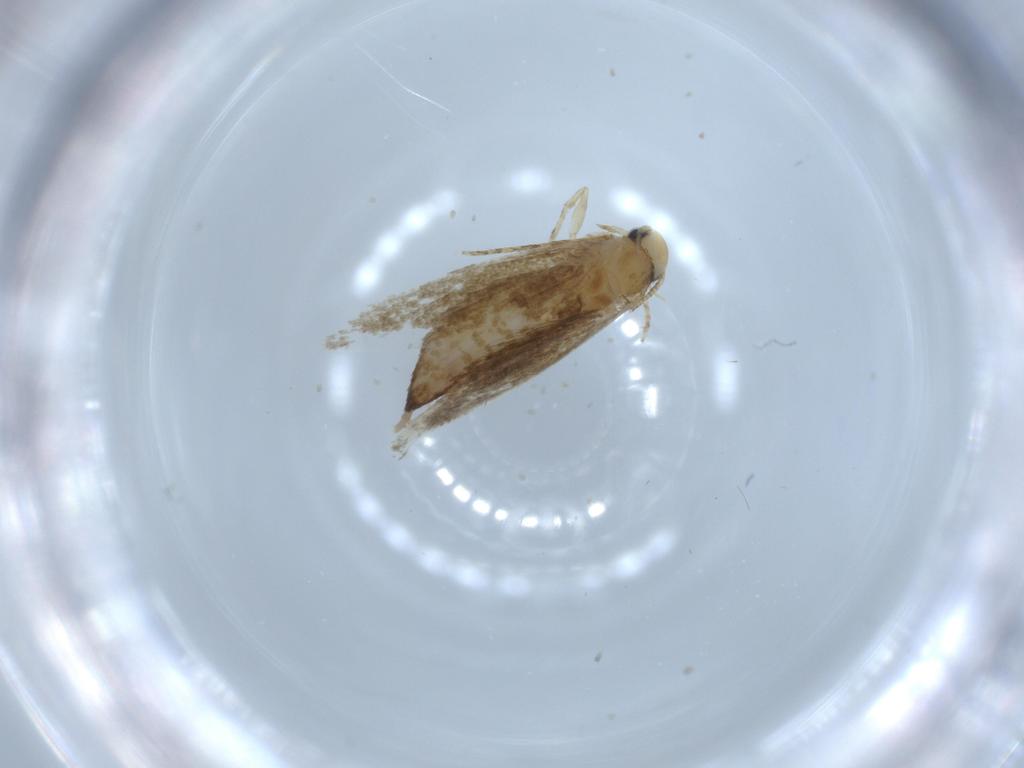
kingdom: Animalia
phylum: Arthropoda
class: Insecta
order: Lepidoptera
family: Tineidae
